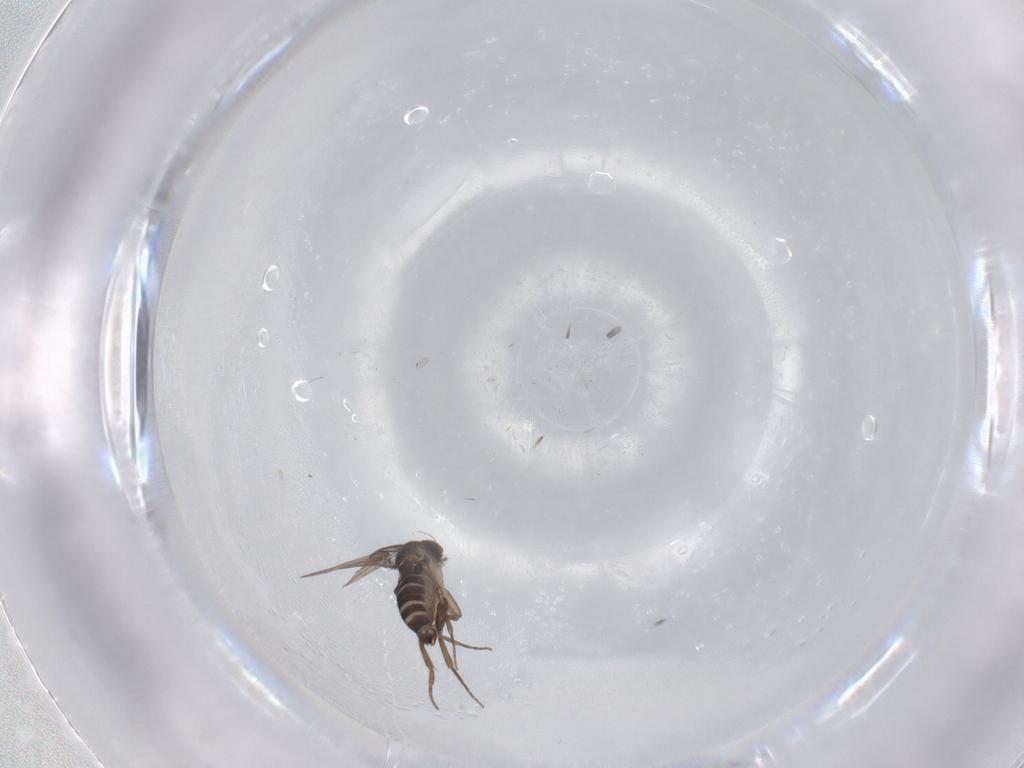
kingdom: Animalia
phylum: Arthropoda
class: Insecta
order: Diptera
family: Phoridae
